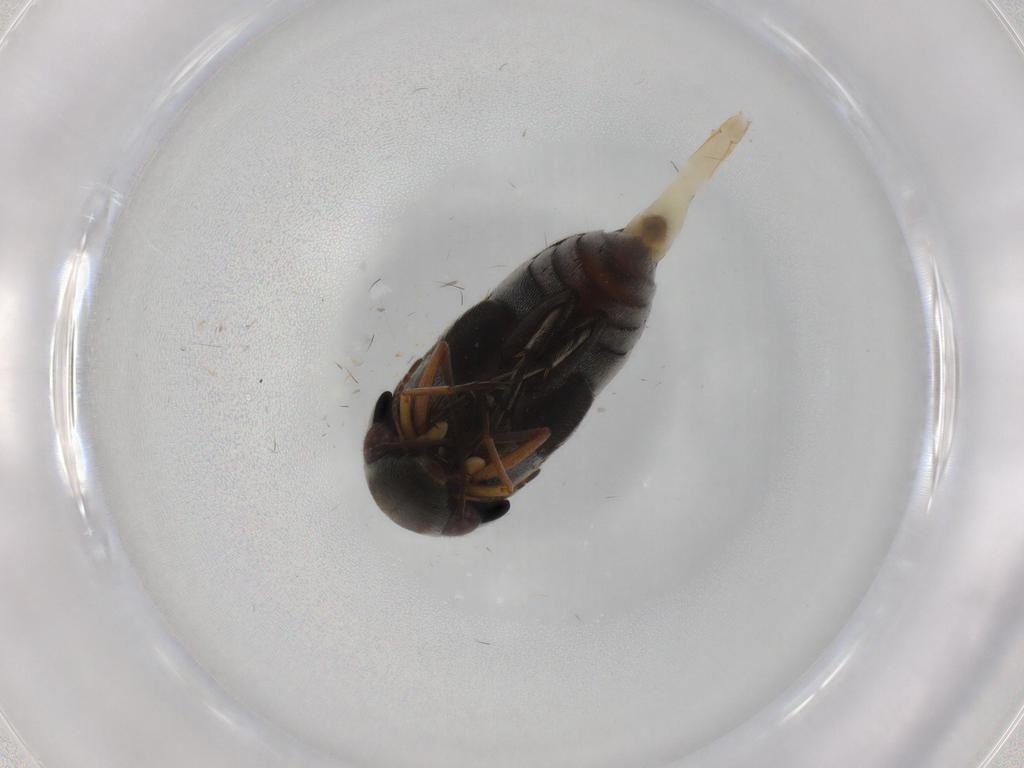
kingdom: Animalia
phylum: Arthropoda
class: Insecta
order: Coleoptera
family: Mordellidae
